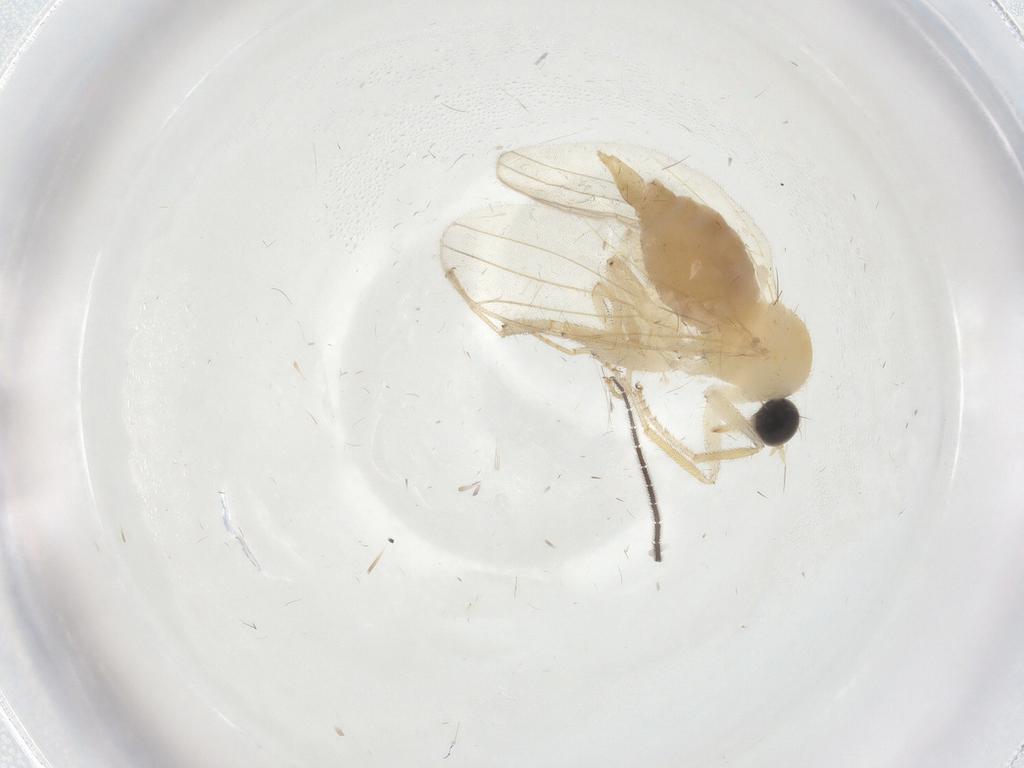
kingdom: Animalia
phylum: Arthropoda
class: Insecta
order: Diptera
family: Hybotidae
